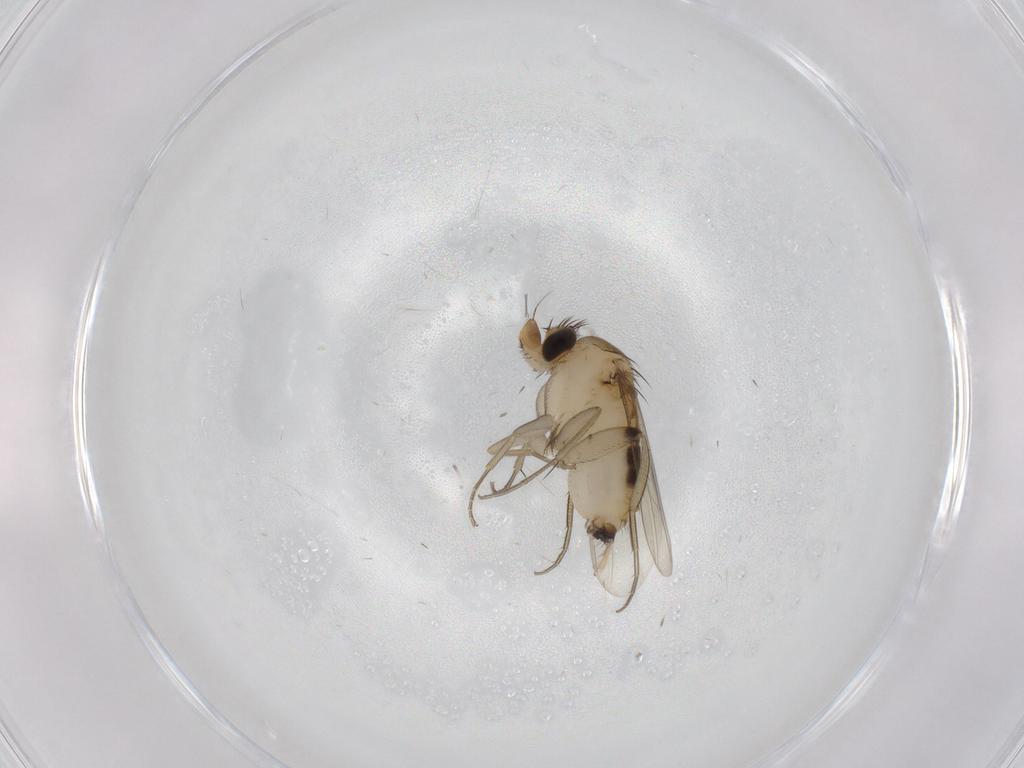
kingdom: Animalia
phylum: Arthropoda
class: Insecta
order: Diptera
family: Phoridae
